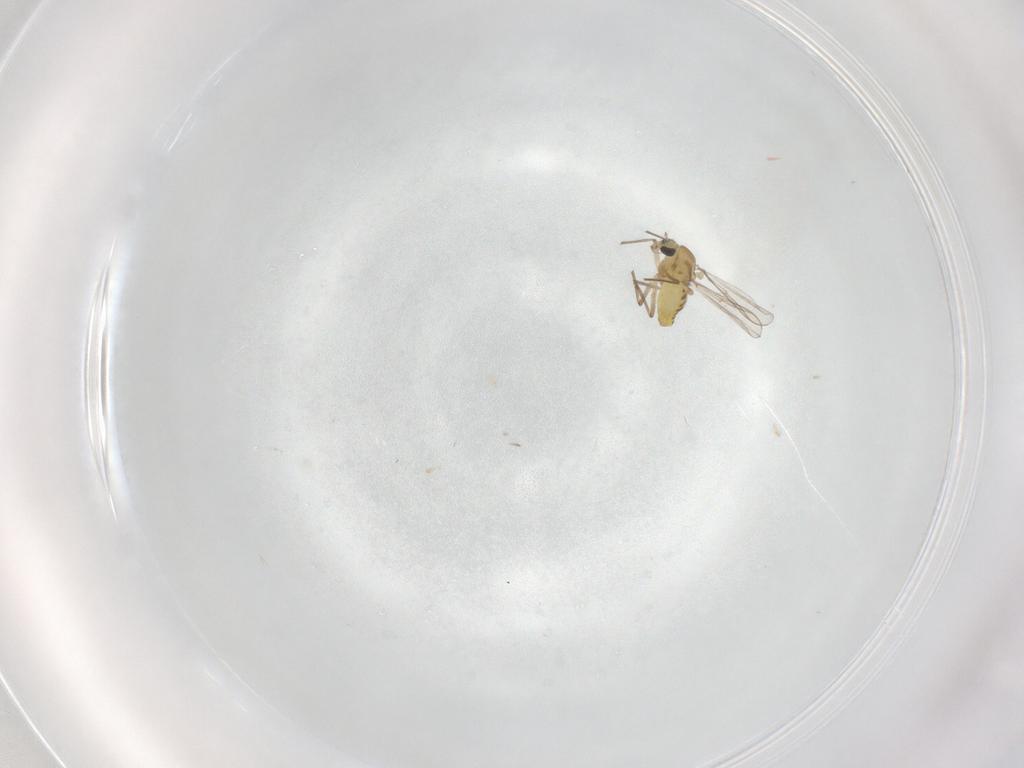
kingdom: Animalia
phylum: Arthropoda
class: Insecta
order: Diptera
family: Chironomidae
